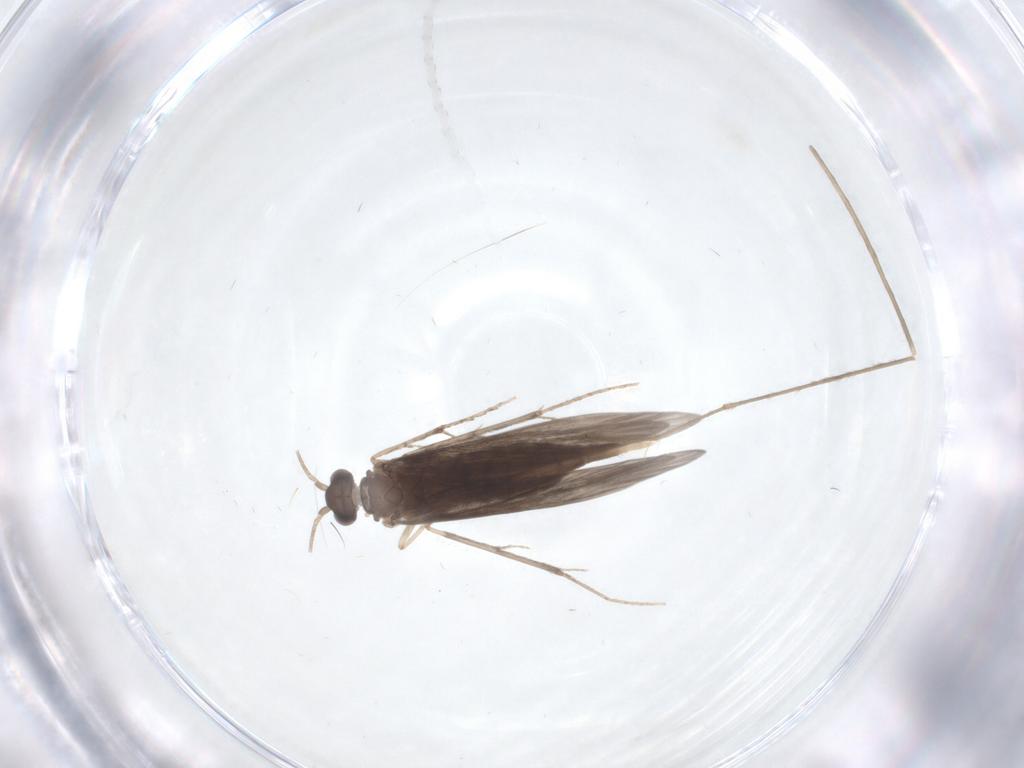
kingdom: Animalia
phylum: Arthropoda
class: Insecta
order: Trichoptera
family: Xiphocentronidae
